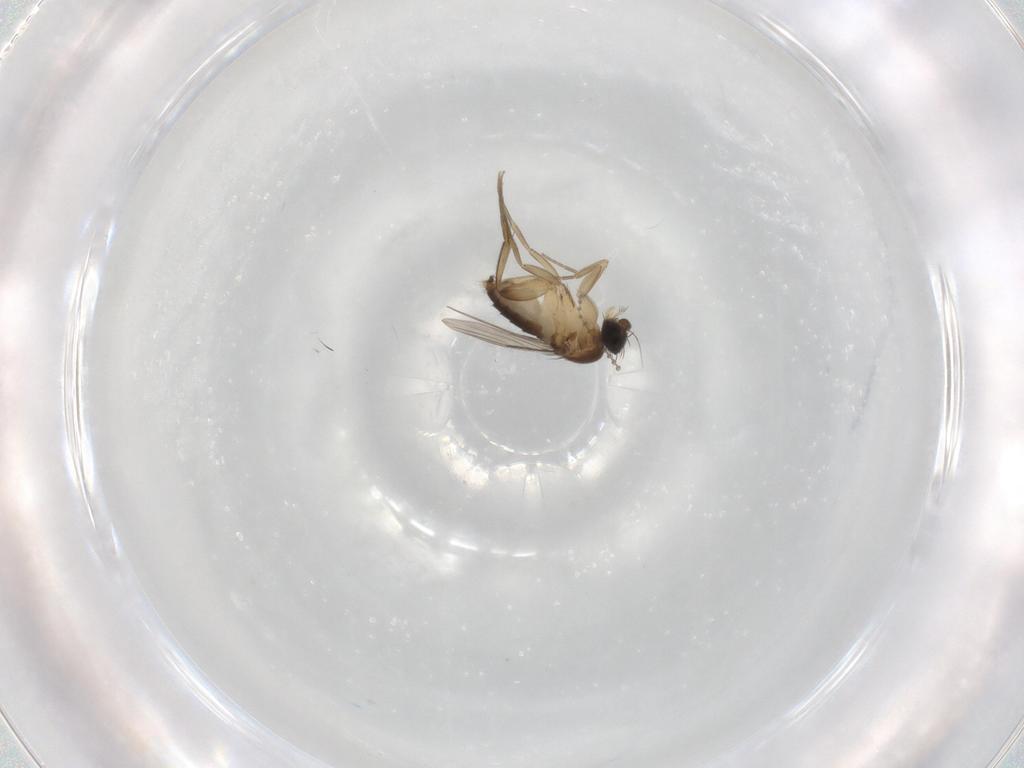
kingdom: Animalia
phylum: Arthropoda
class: Insecta
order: Diptera
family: Phoridae
